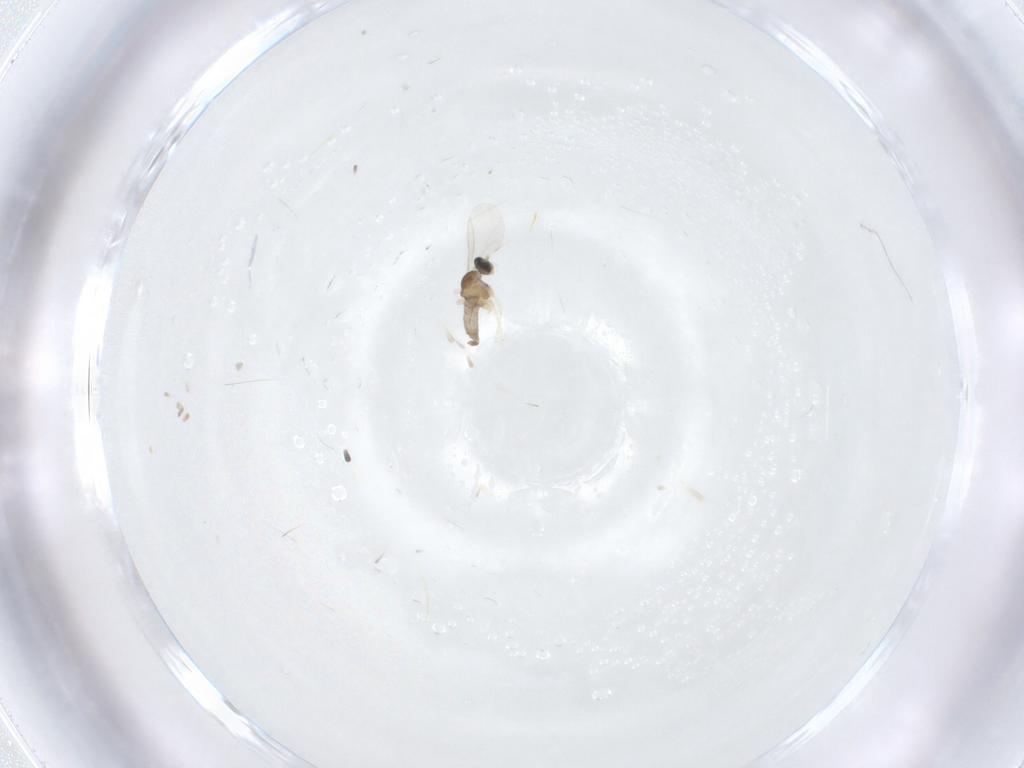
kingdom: Animalia
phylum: Arthropoda
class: Insecta
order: Diptera
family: Cecidomyiidae
